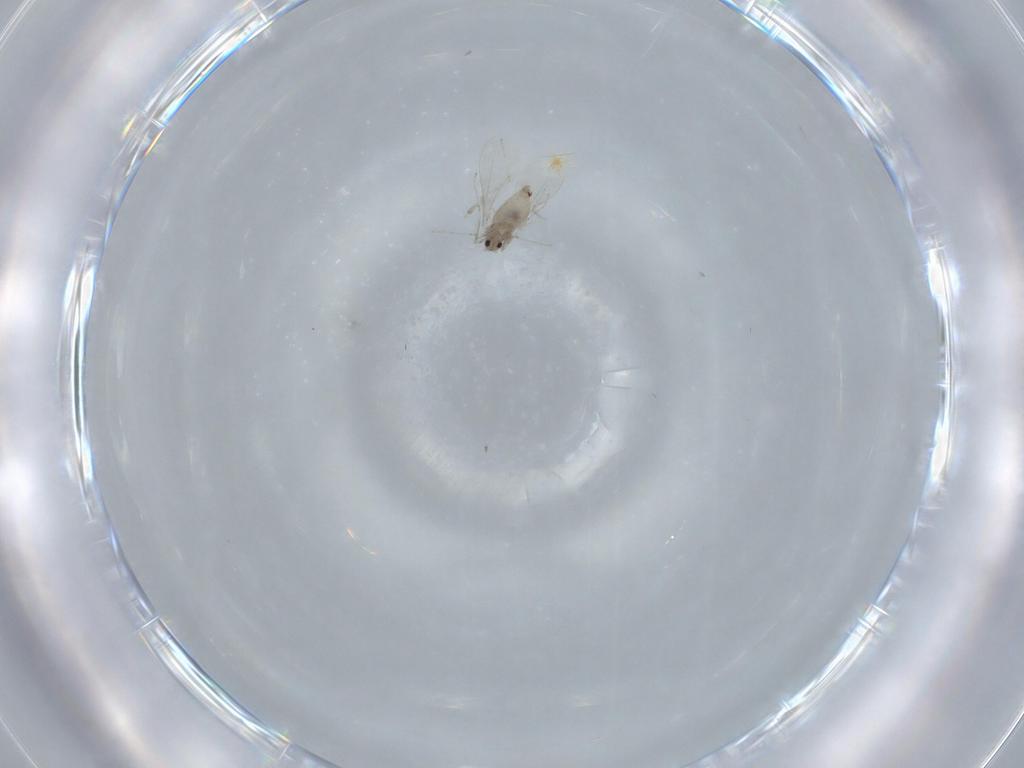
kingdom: Animalia
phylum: Arthropoda
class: Insecta
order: Diptera
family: Cecidomyiidae
